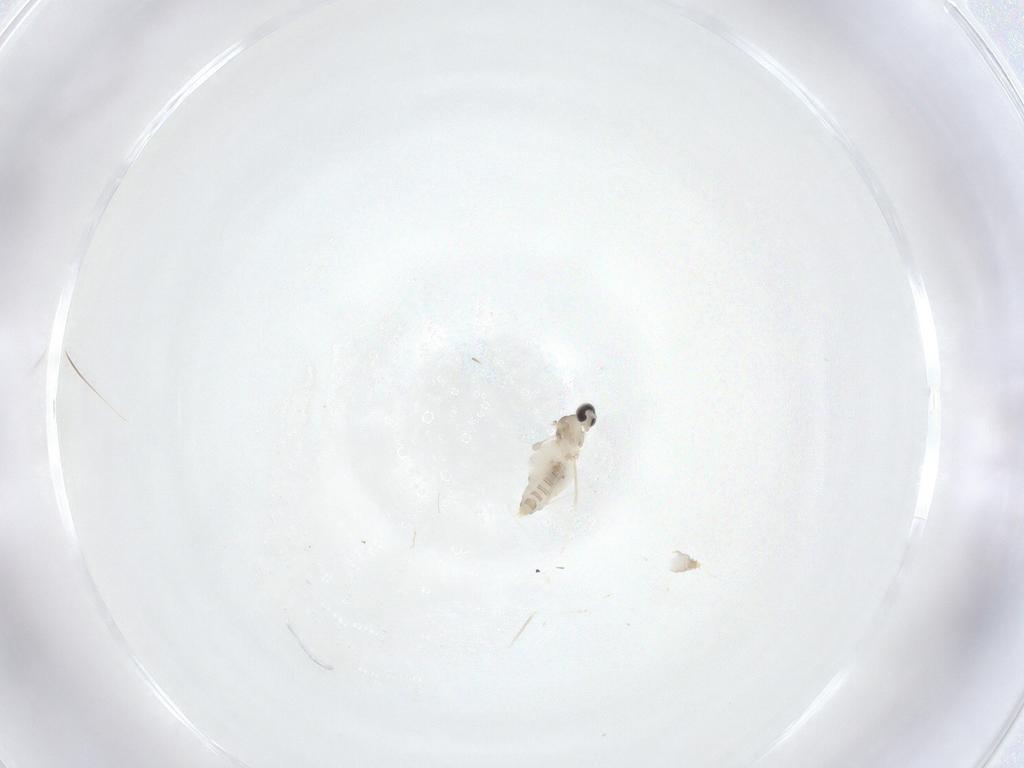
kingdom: Animalia
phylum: Arthropoda
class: Insecta
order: Diptera
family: Cecidomyiidae
